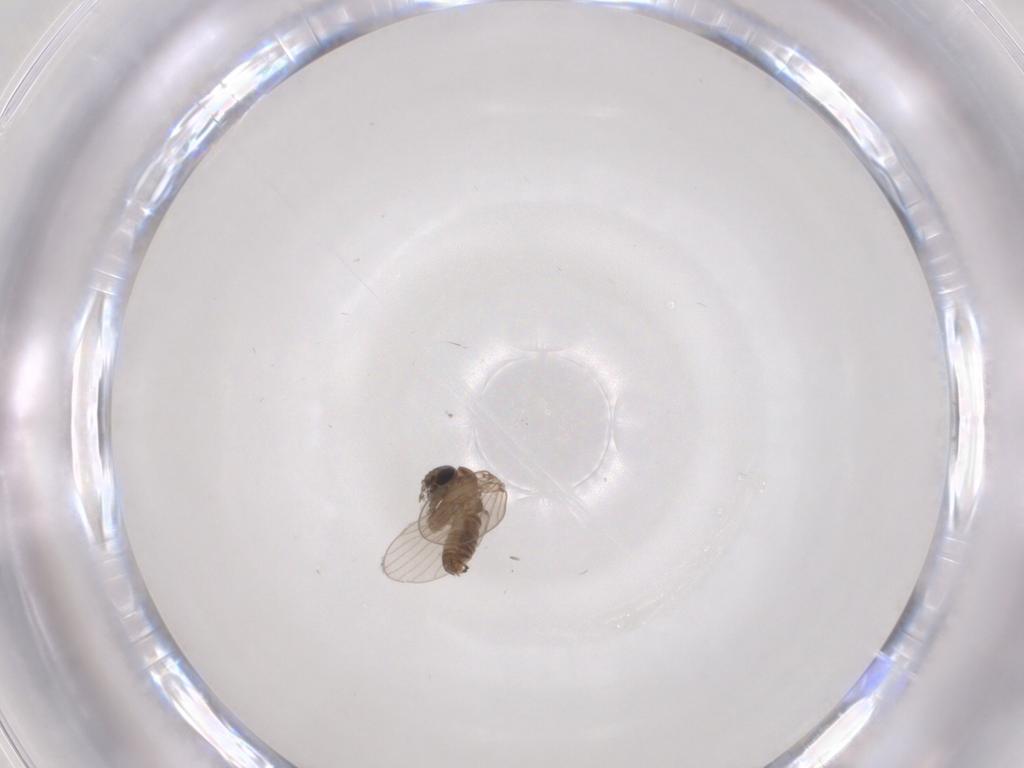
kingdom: Animalia
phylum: Arthropoda
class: Insecta
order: Diptera
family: Psychodidae
